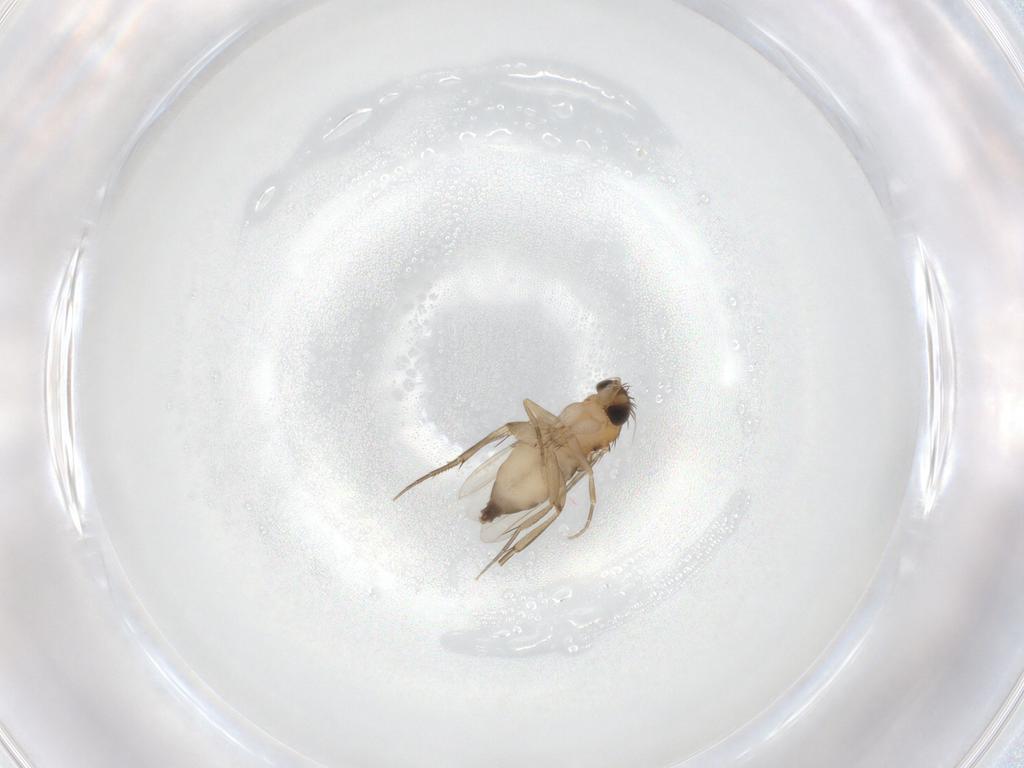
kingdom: Animalia
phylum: Arthropoda
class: Insecta
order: Diptera
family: Phoridae
